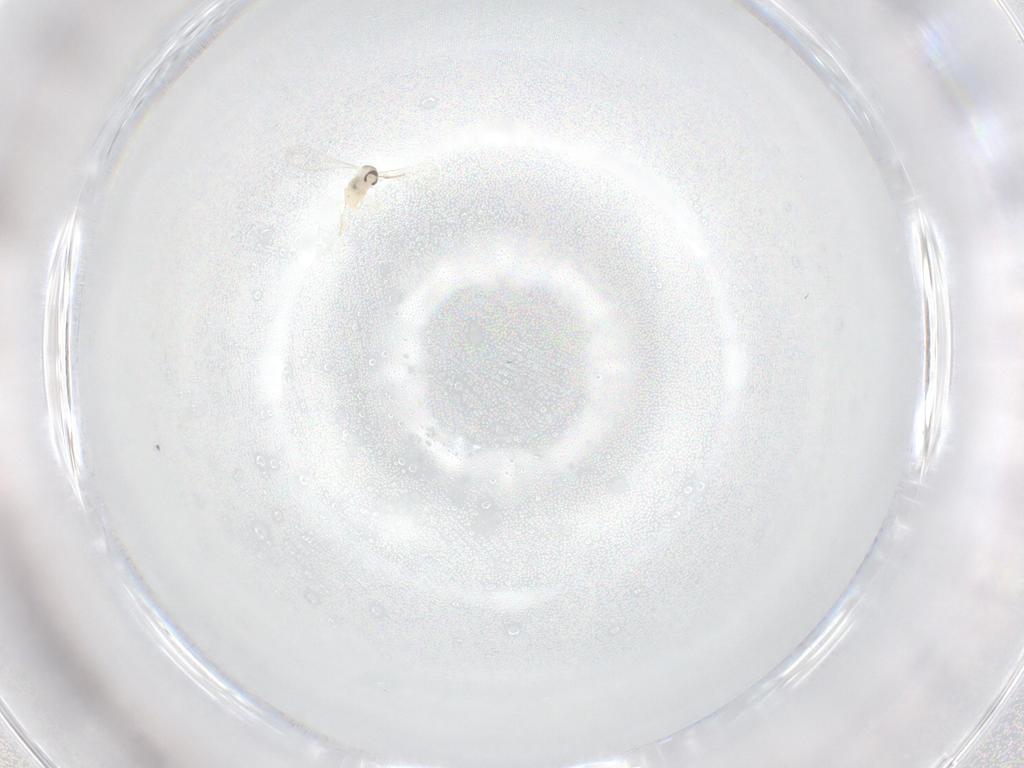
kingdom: Animalia
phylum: Arthropoda
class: Insecta
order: Diptera
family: Cecidomyiidae
